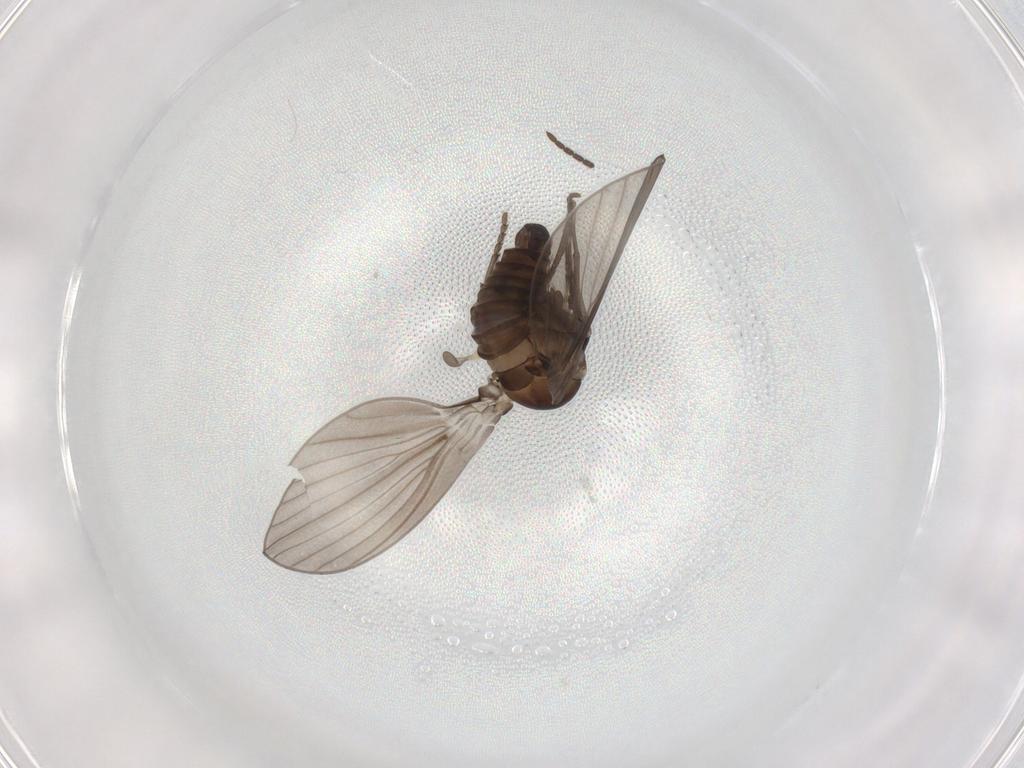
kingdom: Animalia
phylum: Arthropoda
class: Insecta
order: Diptera
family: Psychodidae
